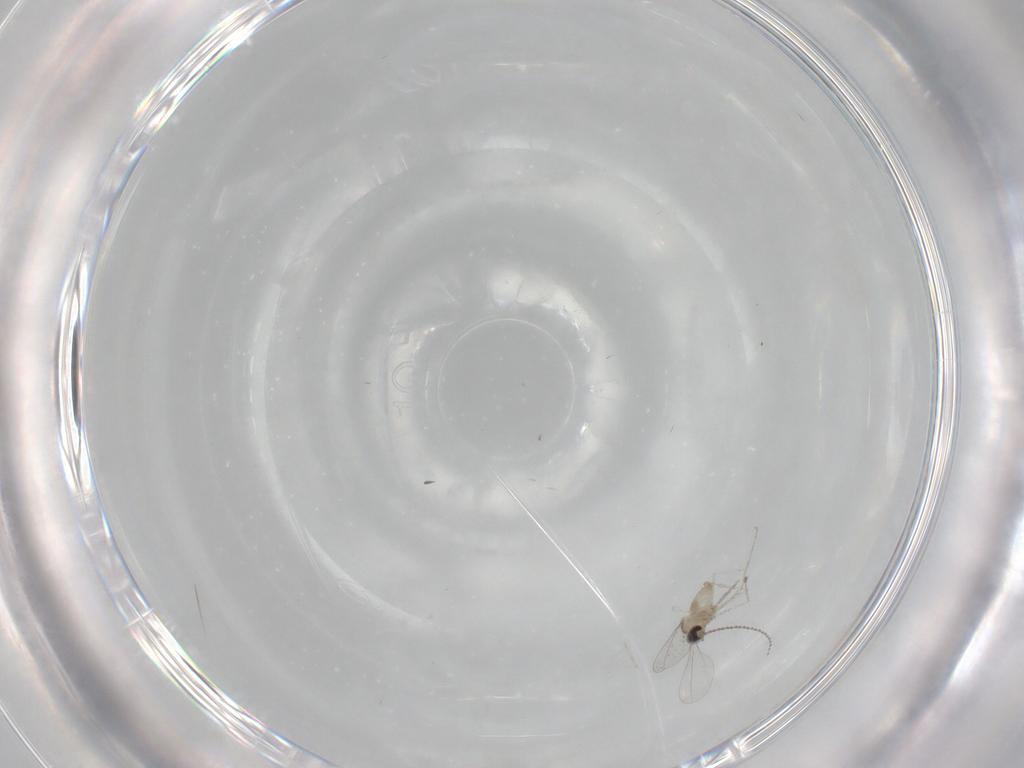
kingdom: Animalia
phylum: Arthropoda
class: Insecta
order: Diptera
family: Cecidomyiidae
